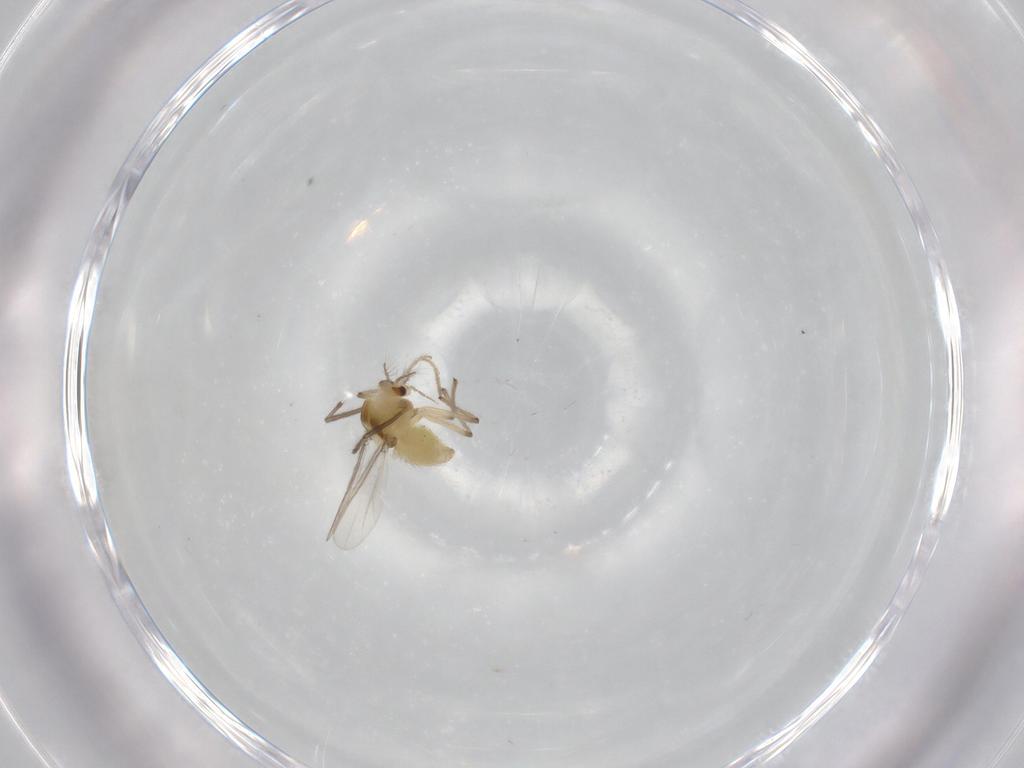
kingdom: Animalia
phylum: Arthropoda
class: Insecta
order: Diptera
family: Chironomidae
